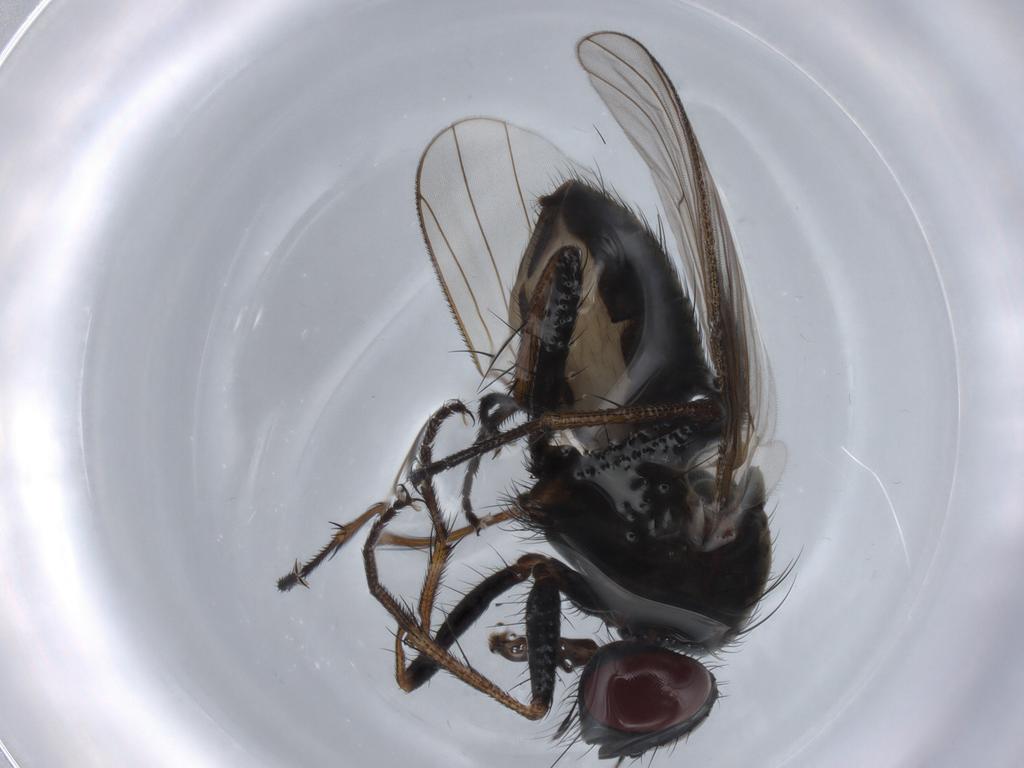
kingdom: Animalia
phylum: Arthropoda
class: Insecta
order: Diptera
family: Muscidae
